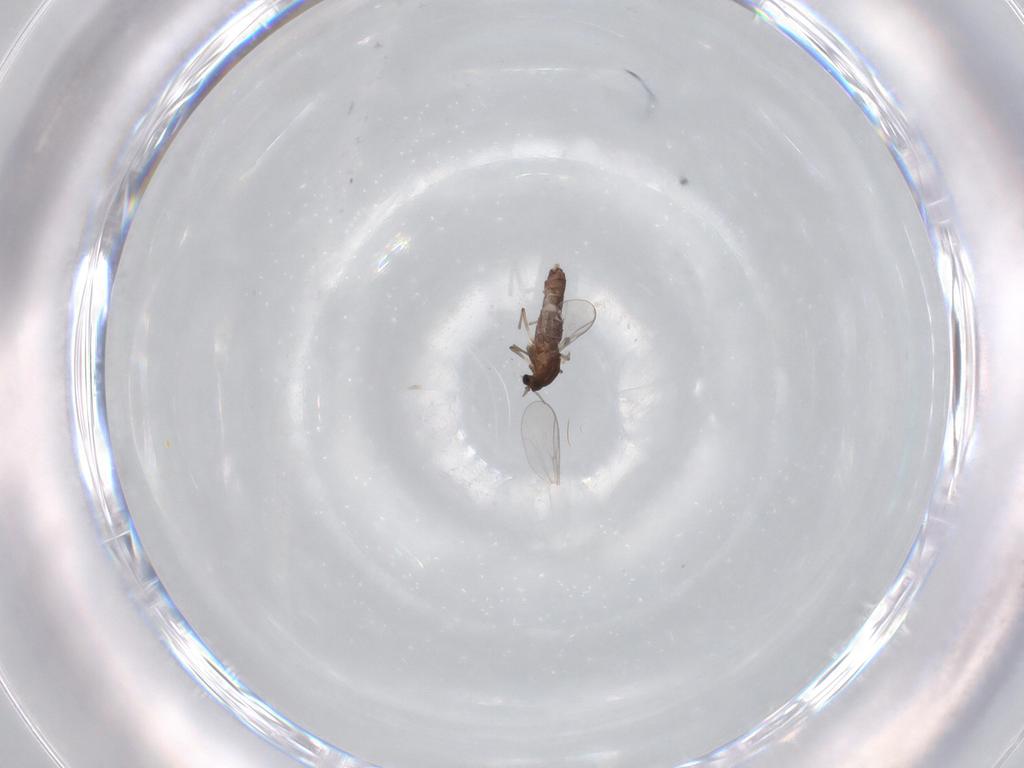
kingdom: Animalia
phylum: Arthropoda
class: Insecta
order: Diptera
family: Chironomidae
